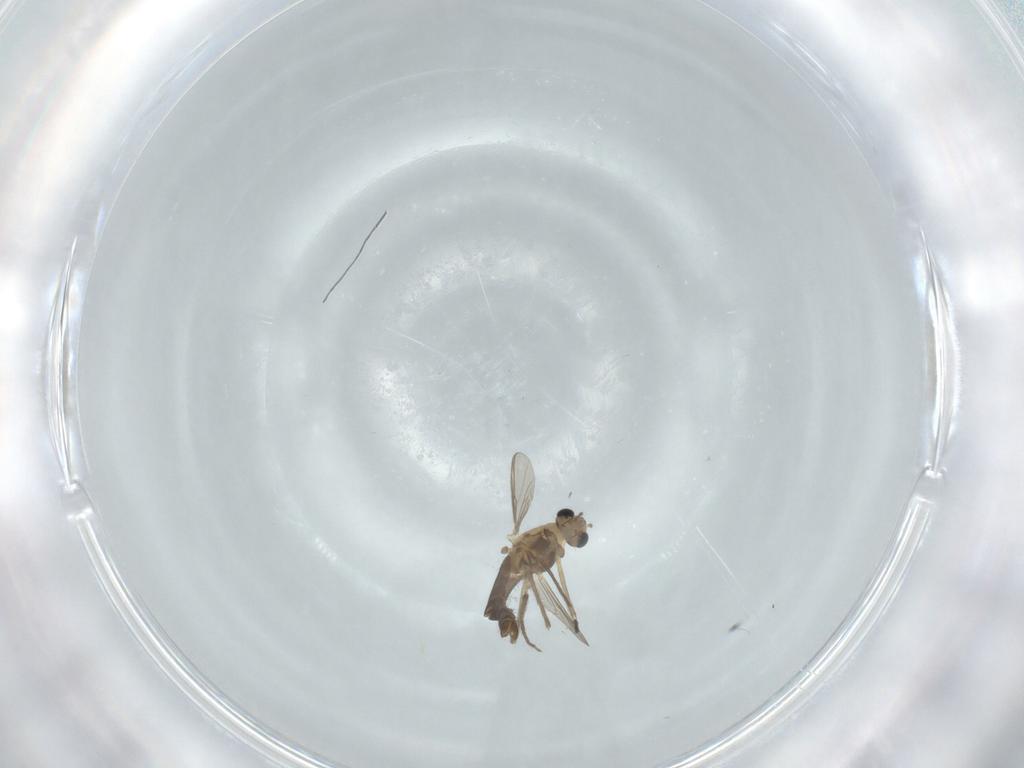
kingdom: Animalia
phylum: Arthropoda
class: Insecta
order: Diptera
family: Chironomidae
